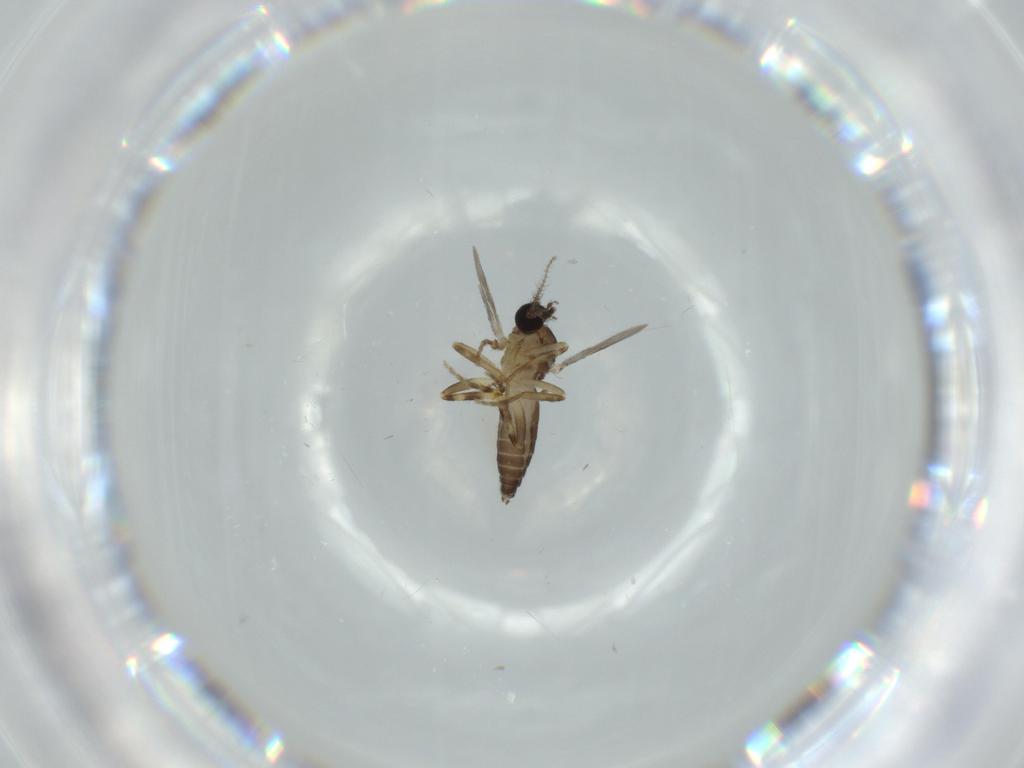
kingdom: Animalia
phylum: Arthropoda
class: Insecta
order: Diptera
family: Ceratopogonidae
